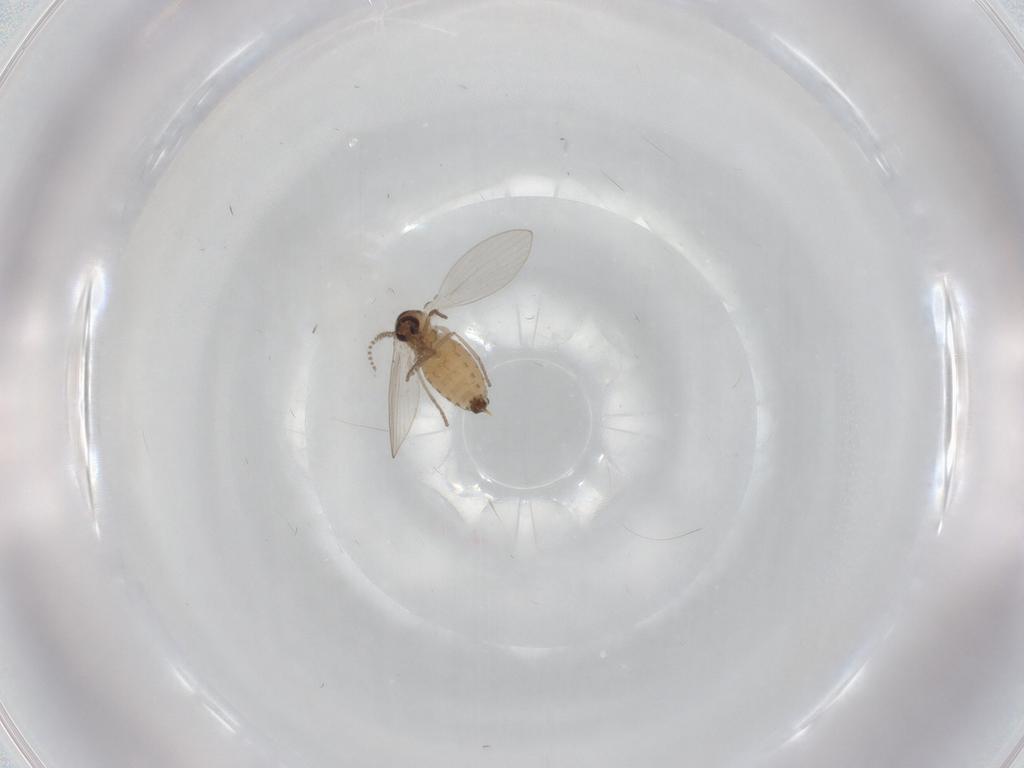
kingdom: Animalia
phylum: Arthropoda
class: Insecta
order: Diptera
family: Psychodidae
